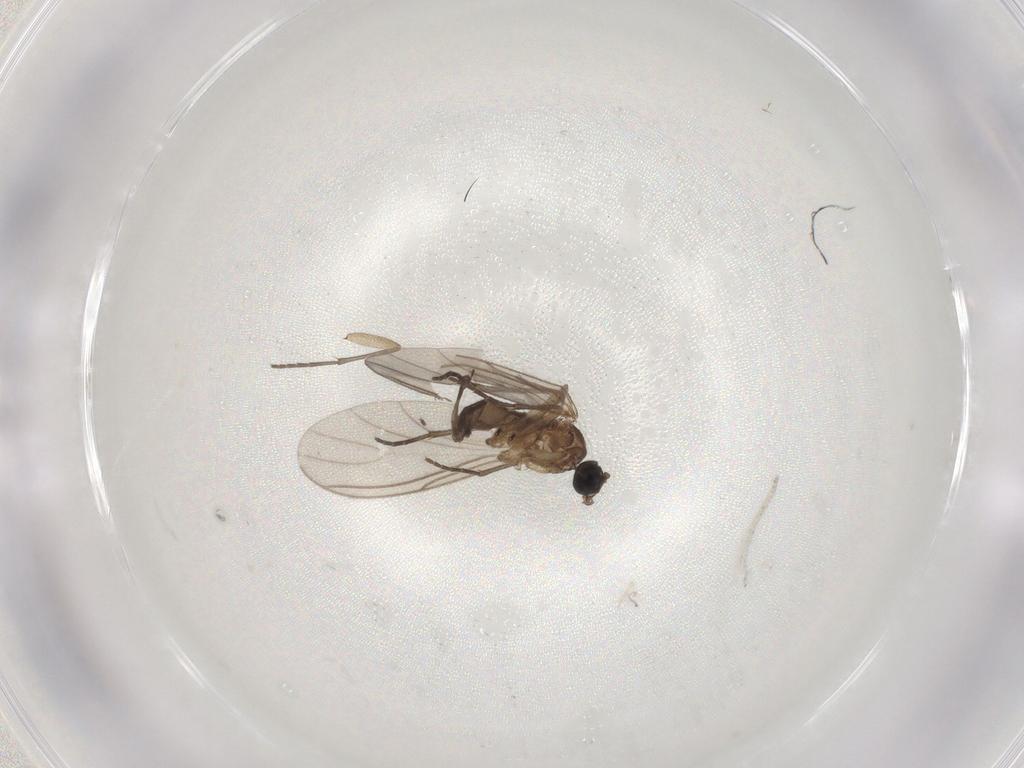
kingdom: Animalia
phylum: Arthropoda
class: Insecta
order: Diptera
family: Sciaridae
